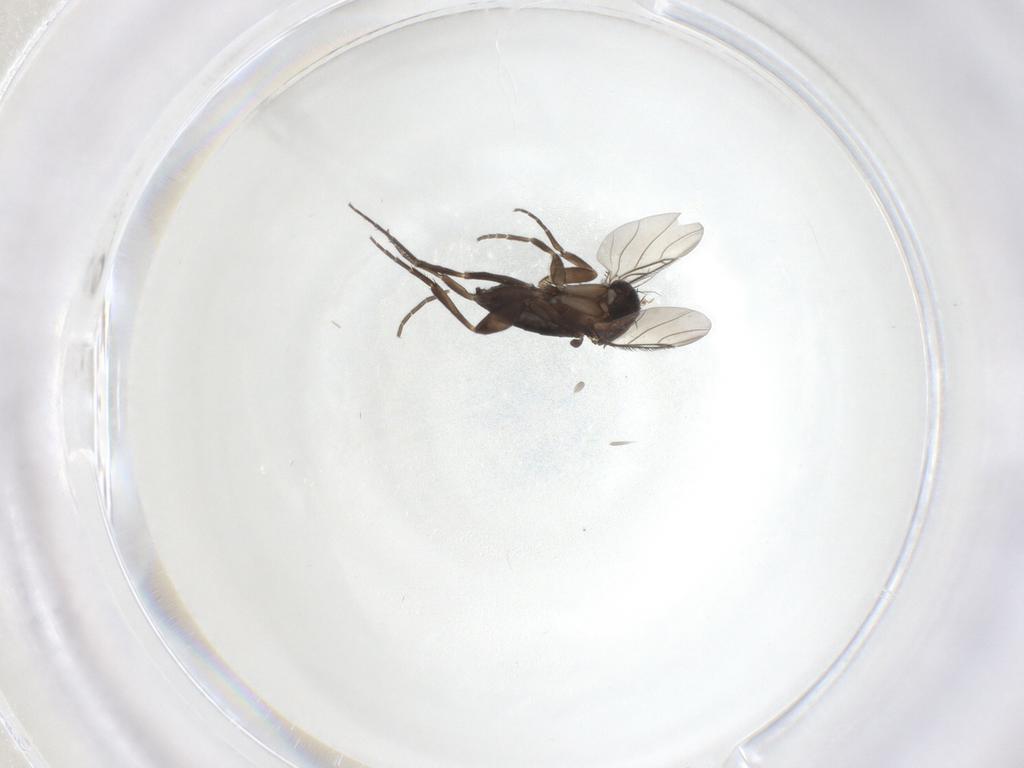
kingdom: Animalia
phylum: Arthropoda
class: Insecta
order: Diptera
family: Phoridae
